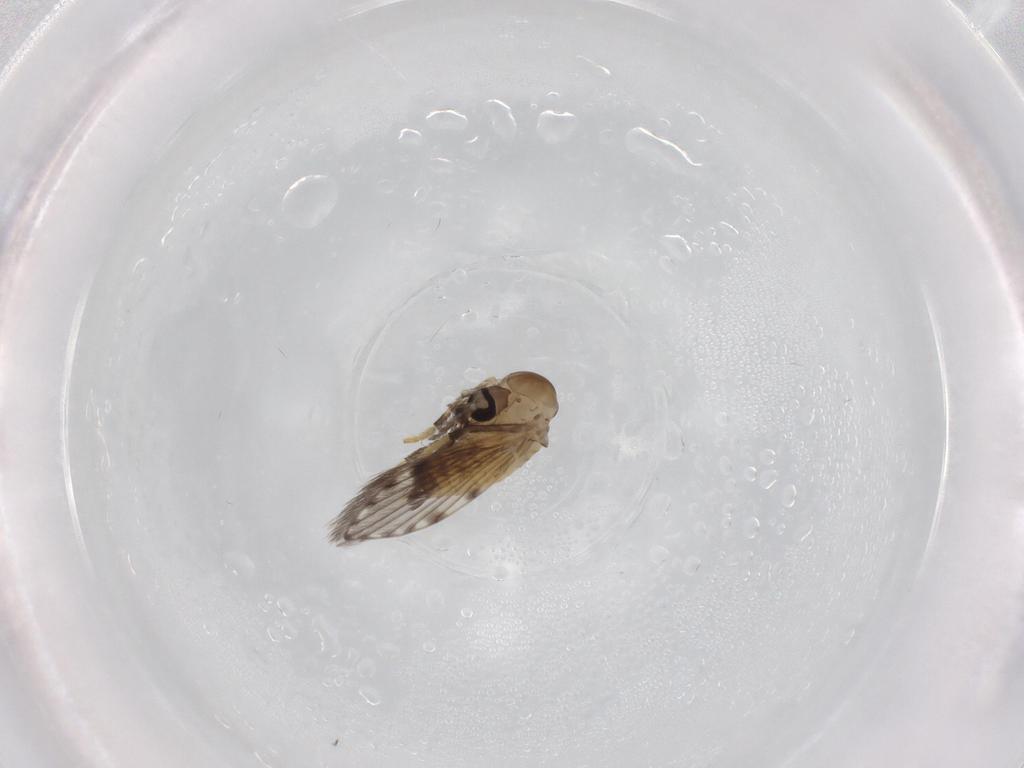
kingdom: Animalia
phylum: Arthropoda
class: Insecta
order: Diptera
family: Psychodidae
